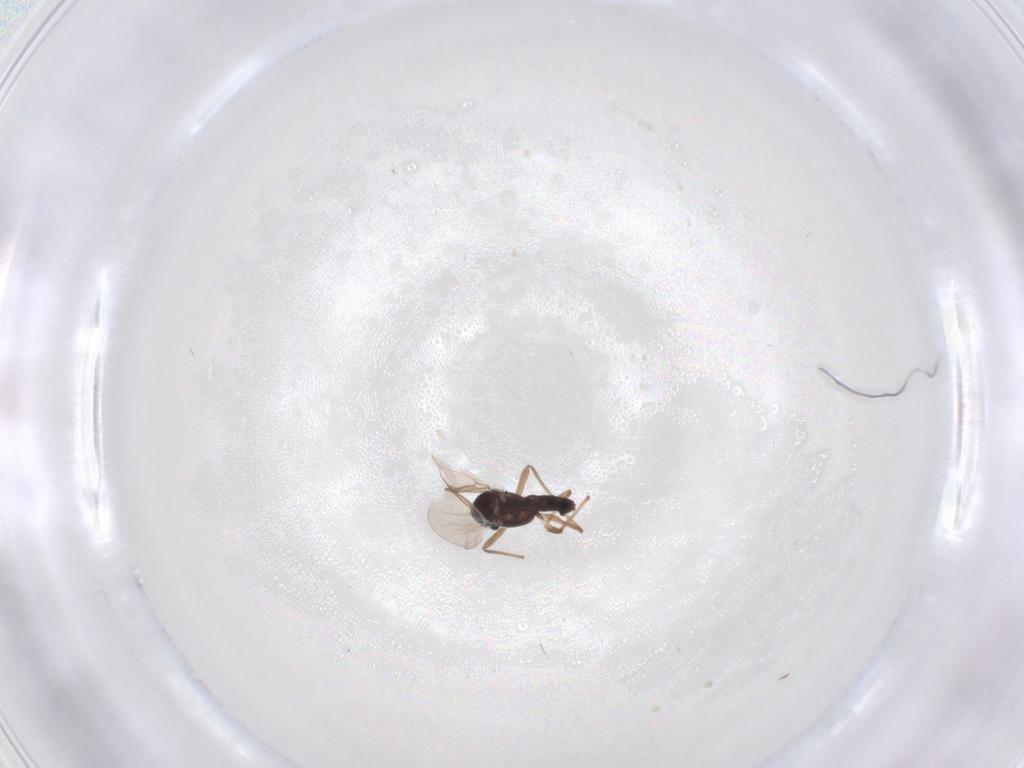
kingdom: Animalia
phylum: Arthropoda
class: Insecta
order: Diptera
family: Chironomidae
